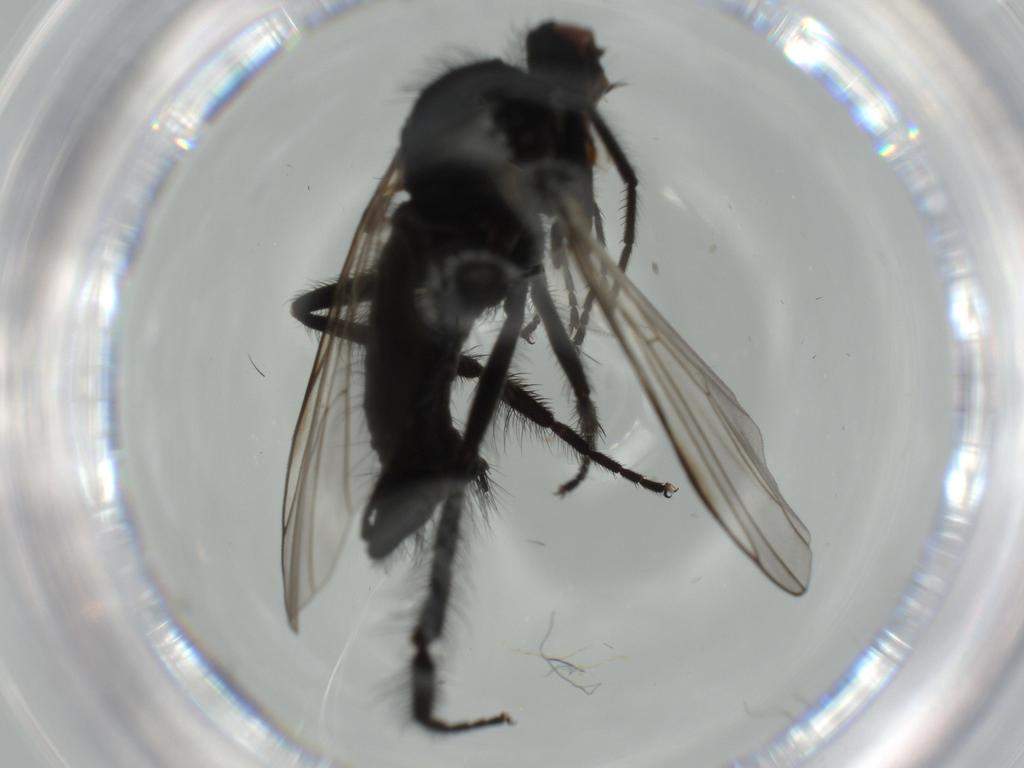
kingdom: Animalia
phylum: Arthropoda
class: Insecta
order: Diptera
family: Empididae
